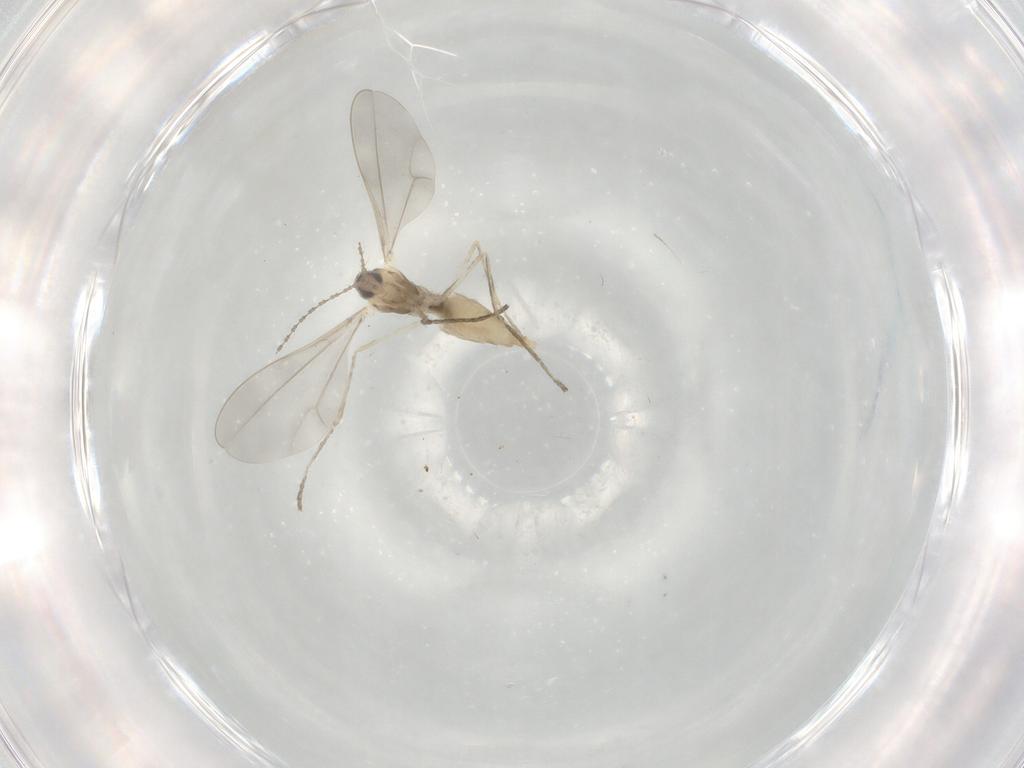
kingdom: Animalia
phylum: Arthropoda
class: Insecta
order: Diptera
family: Cecidomyiidae
